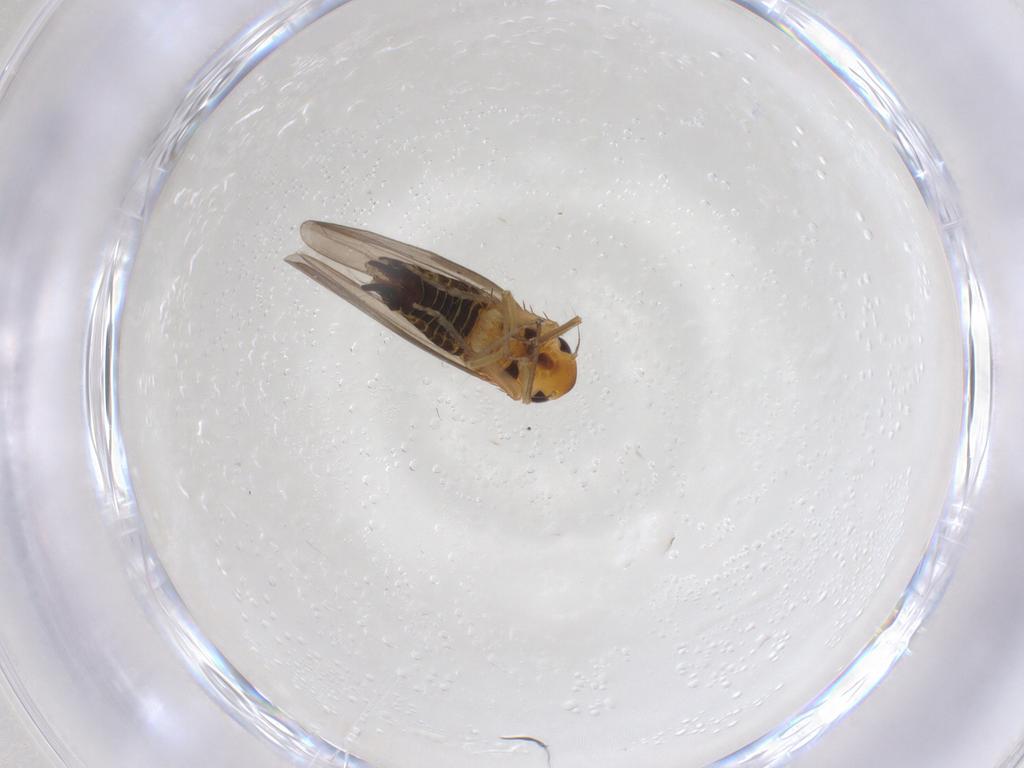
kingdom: Animalia
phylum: Arthropoda
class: Insecta
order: Hemiptera
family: Cicadellidae
